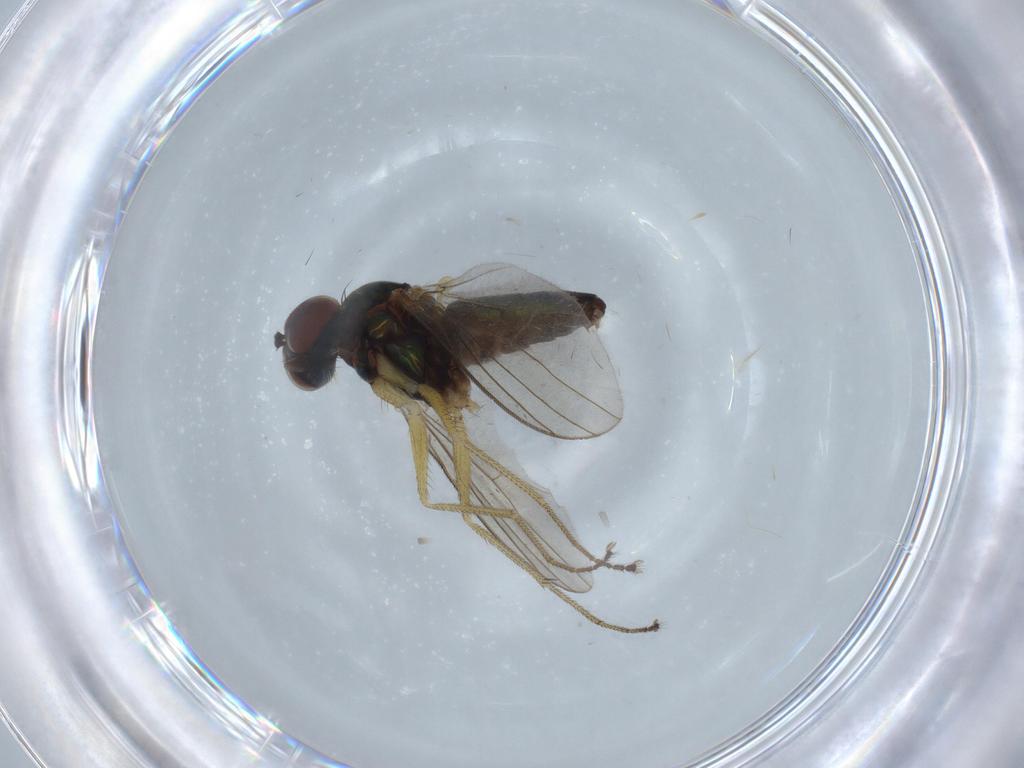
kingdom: Animalia
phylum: Arthropoda
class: Insecta
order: Diptera
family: Dolichopodidae
